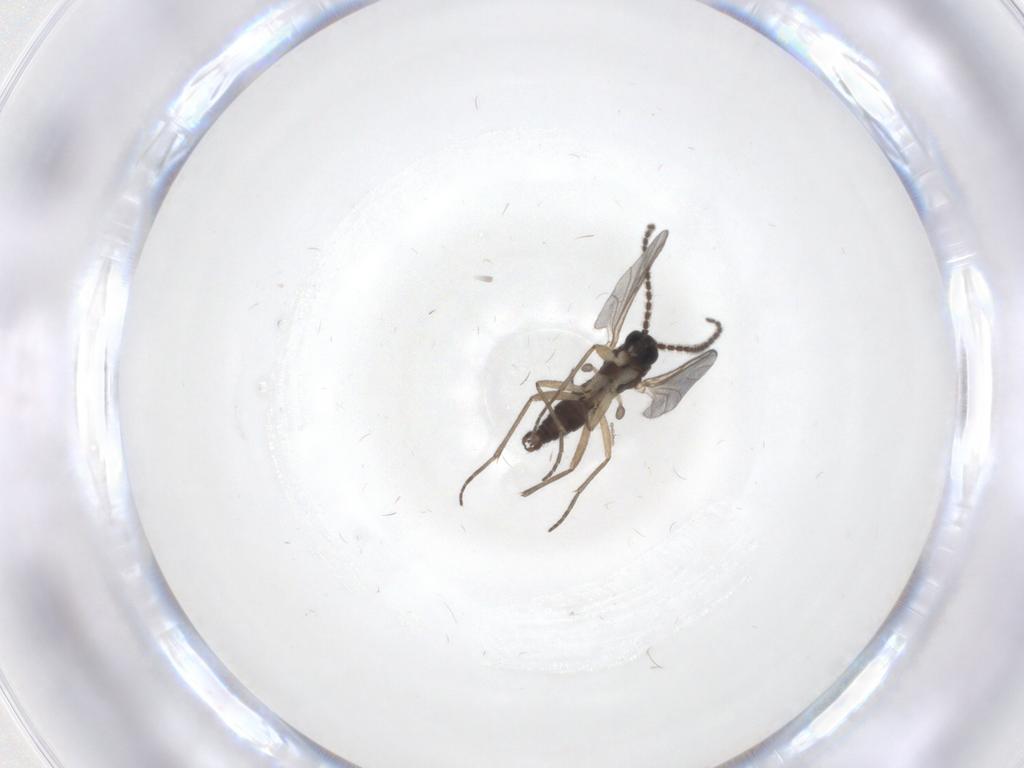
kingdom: Animalia
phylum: Arthropoda
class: Insecta
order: Diptera
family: Sciaridae
